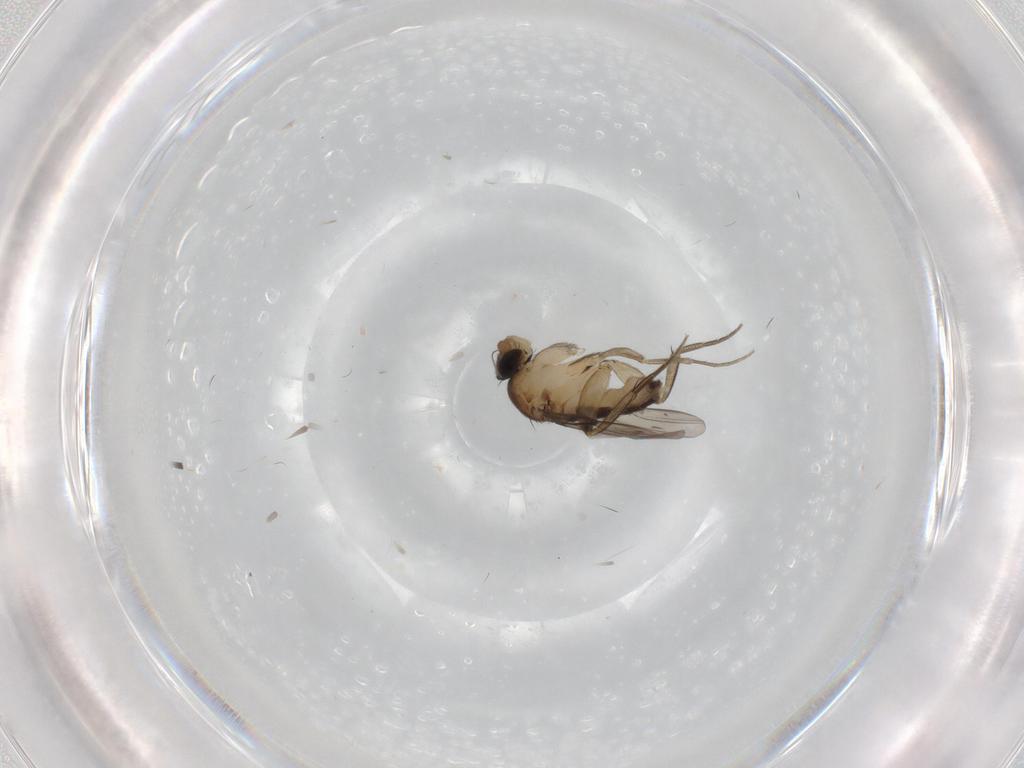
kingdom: Animalia
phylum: Arthropoda
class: Insecta
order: Diptera
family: Phoridae
